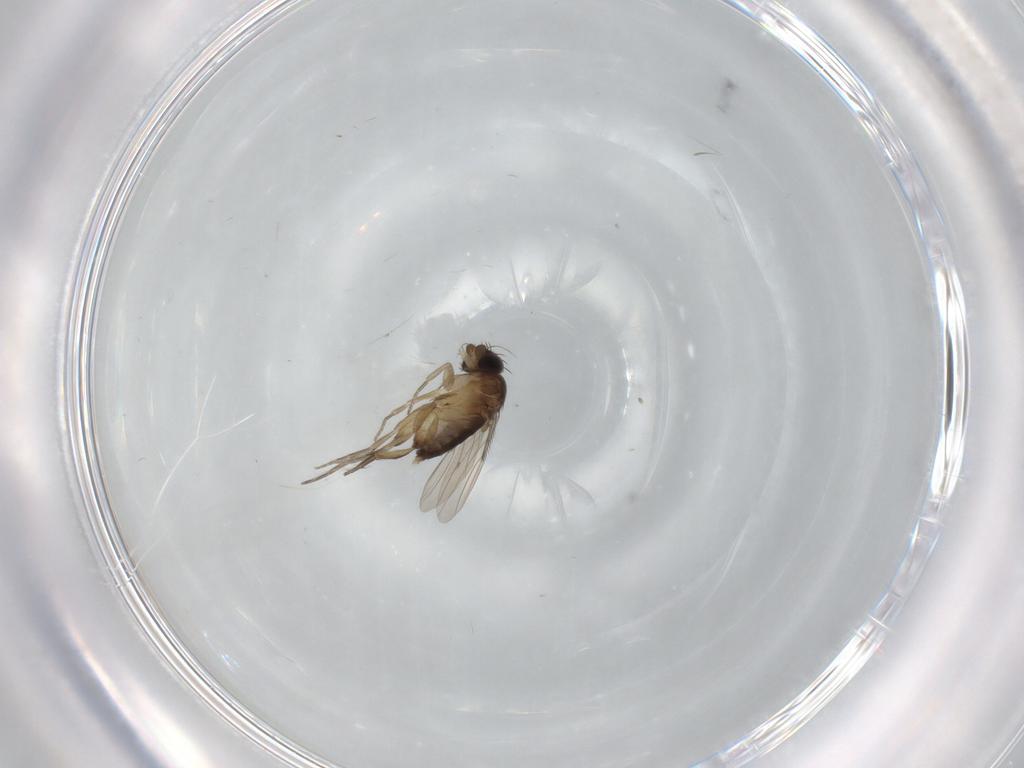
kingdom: Animalia
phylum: Arthropoda
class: Insecta
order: Diptera
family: Phoridae
